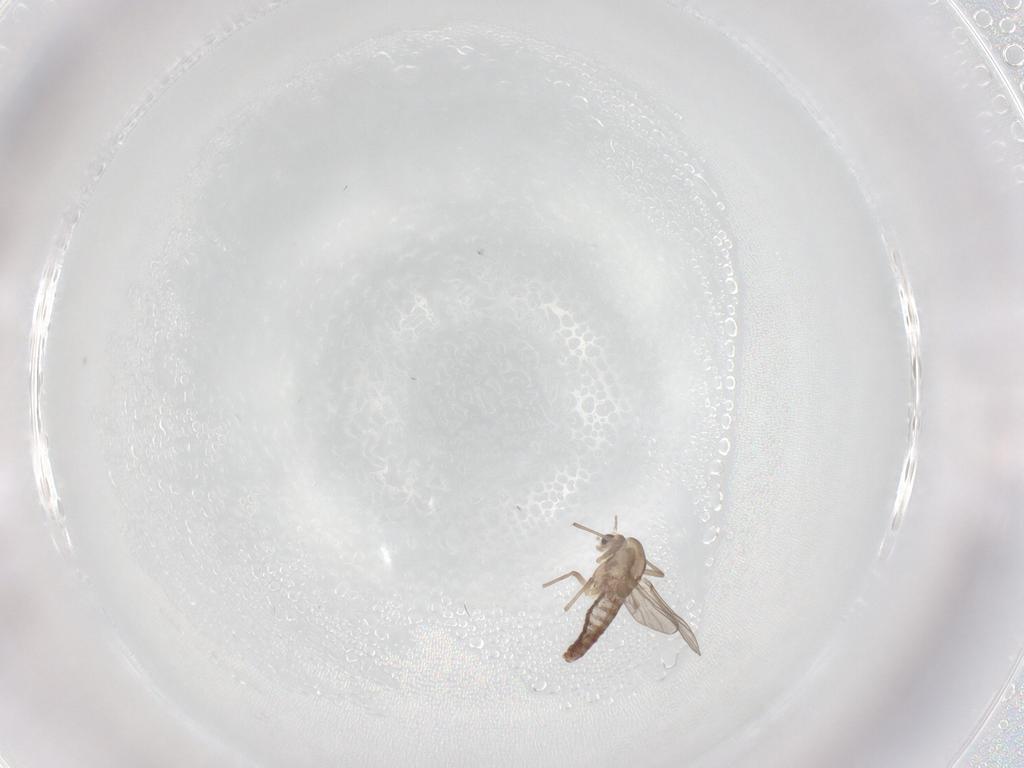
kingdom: Animalia
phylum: Arthropoda
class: Insecta
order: Diptera
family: Chironomidae
